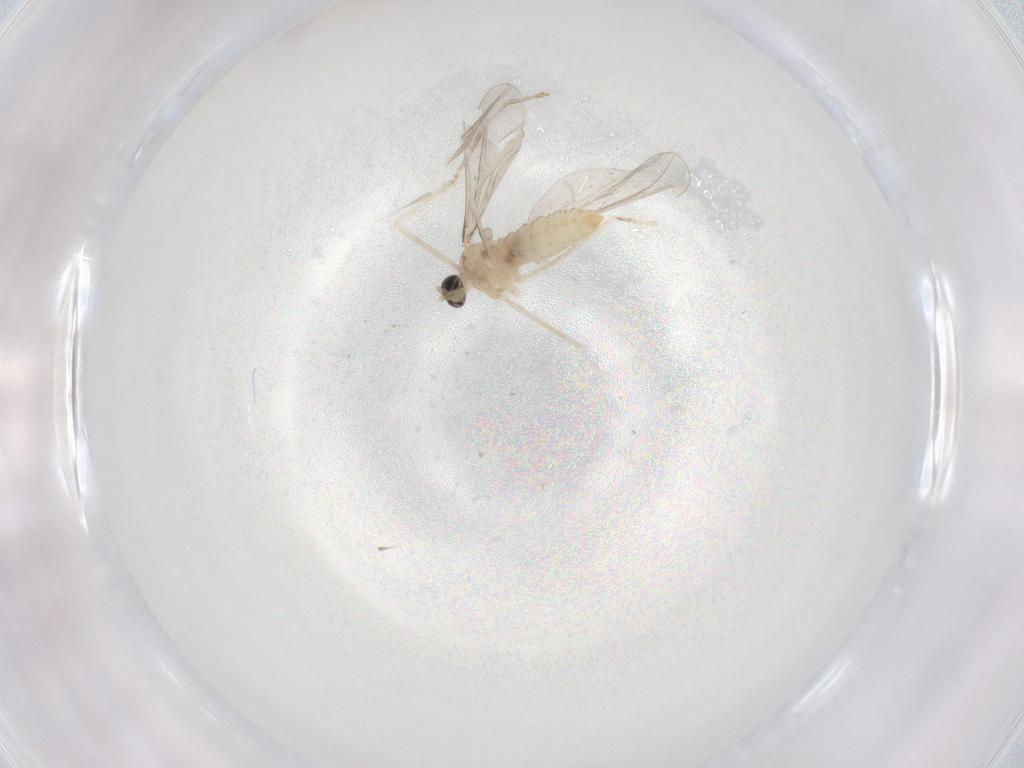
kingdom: Animalia
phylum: Arthropoda
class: Insecta
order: Diptera
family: Cecidomyiidae
